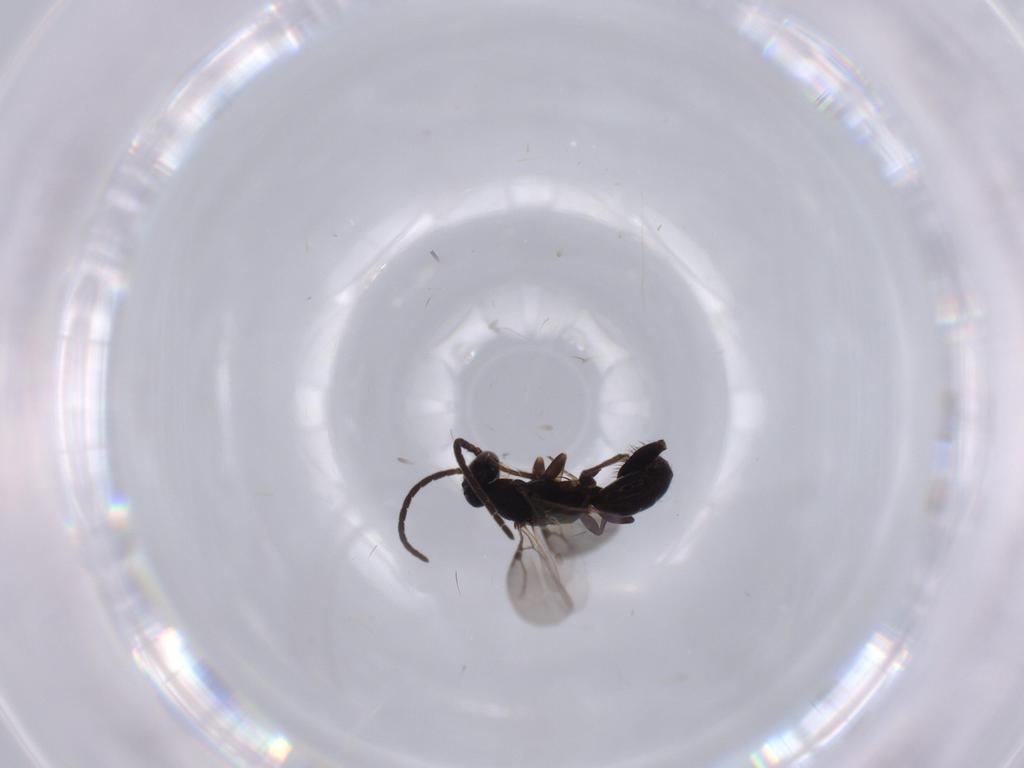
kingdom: Animalia
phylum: Arthropoda
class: Insecta
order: Hymenoptera
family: Bethylidae
